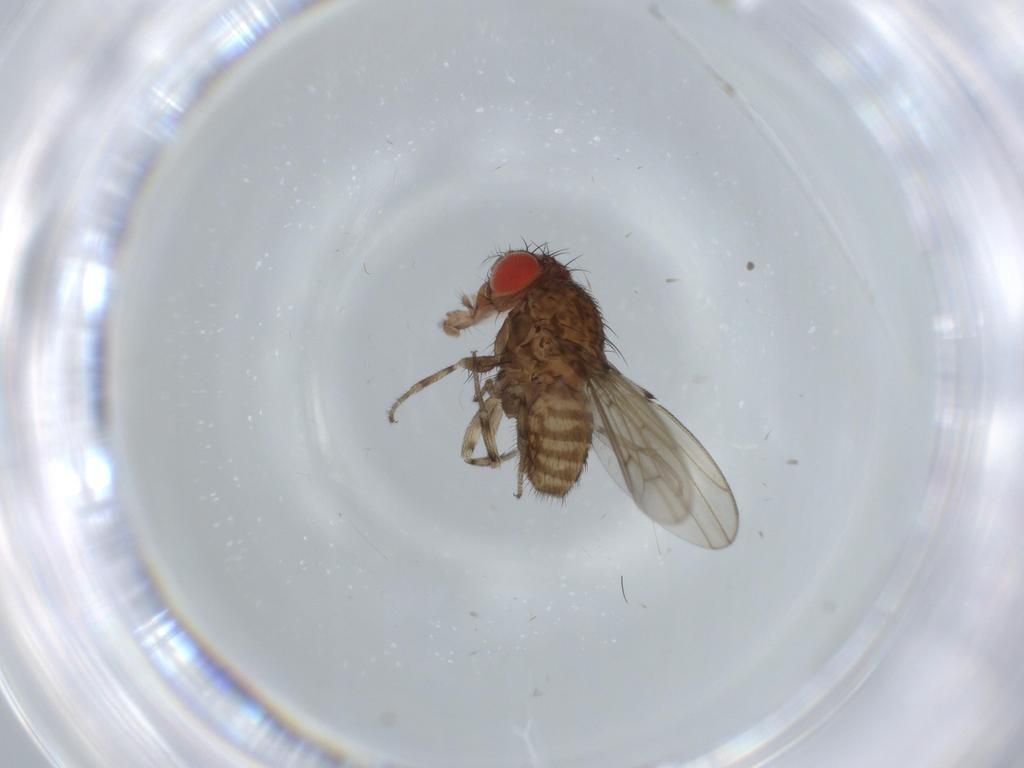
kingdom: Animalia
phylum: Arthropoda
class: Insecta
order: Diptera
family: Drosophilidae
